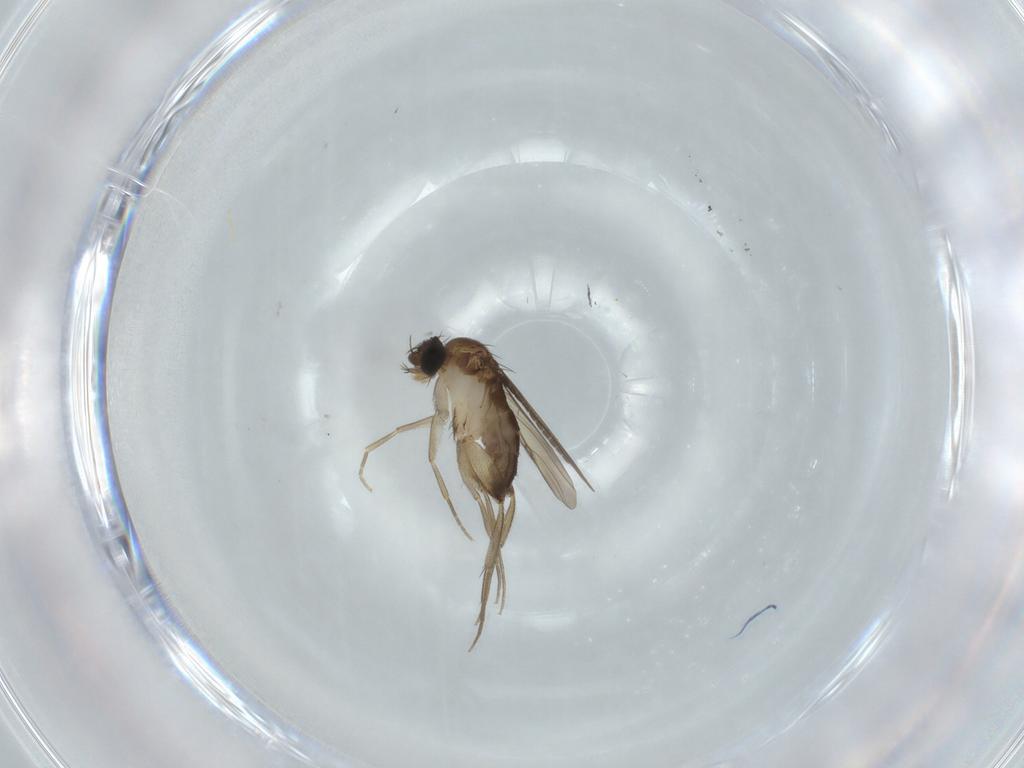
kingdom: Animalia
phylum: Arthropoda
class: Insecta
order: Diptera
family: Phoridae
